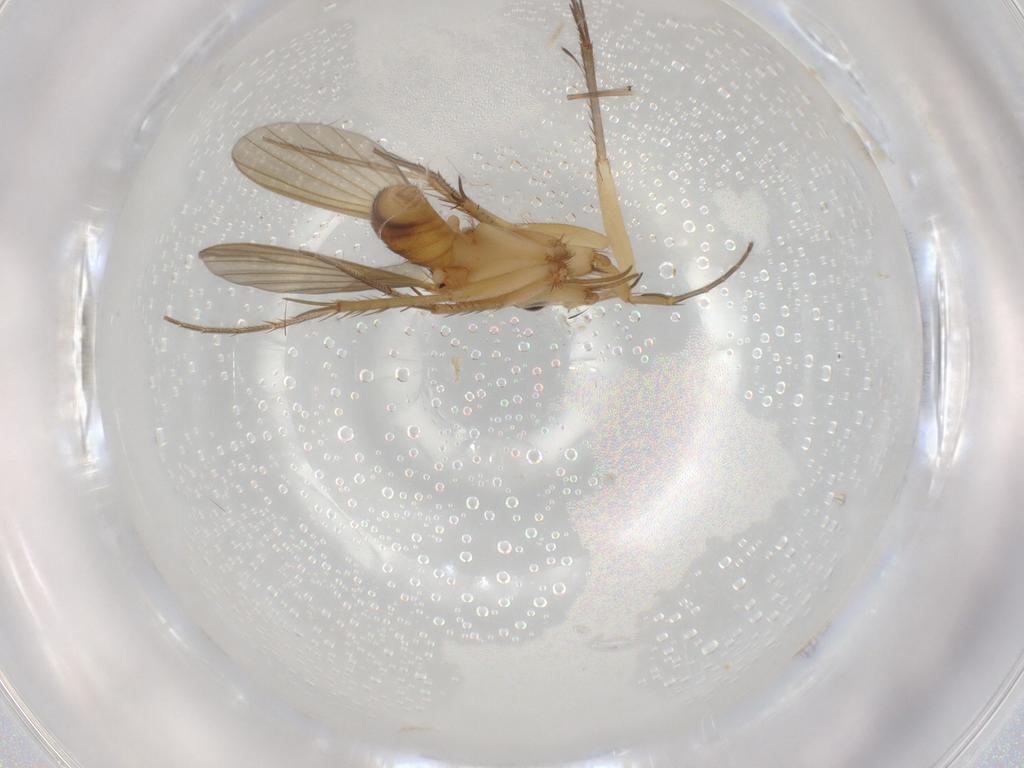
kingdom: Animalia
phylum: Arthropoda
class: Insecta
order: Diptera
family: Mycetophilidae
